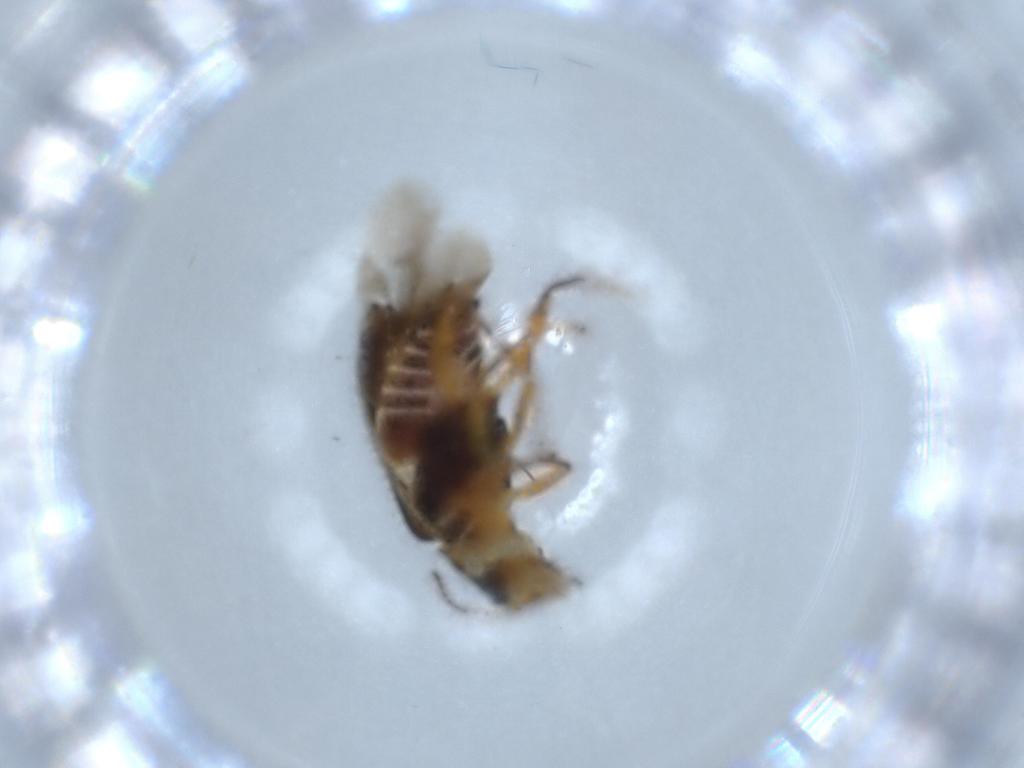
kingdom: Animalia
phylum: Arthropoda
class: Insecta
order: Coleoptera
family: Melyridae
